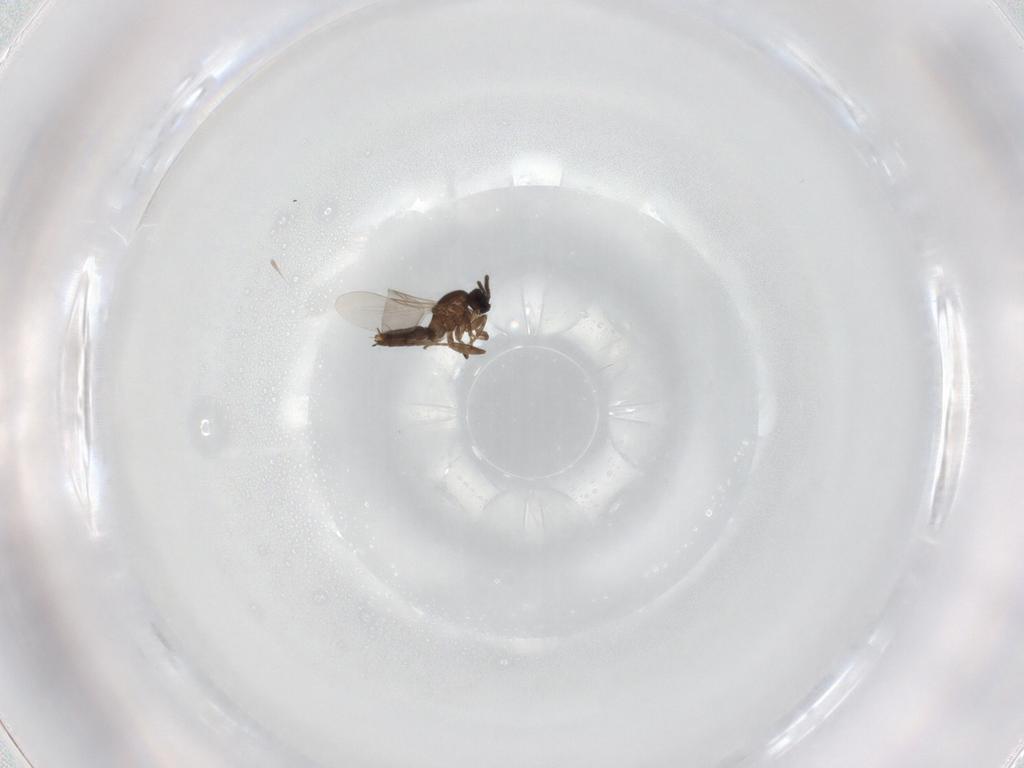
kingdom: Animalia
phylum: Arthropoda
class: Insecta
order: Diptera
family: Scatopsidae
